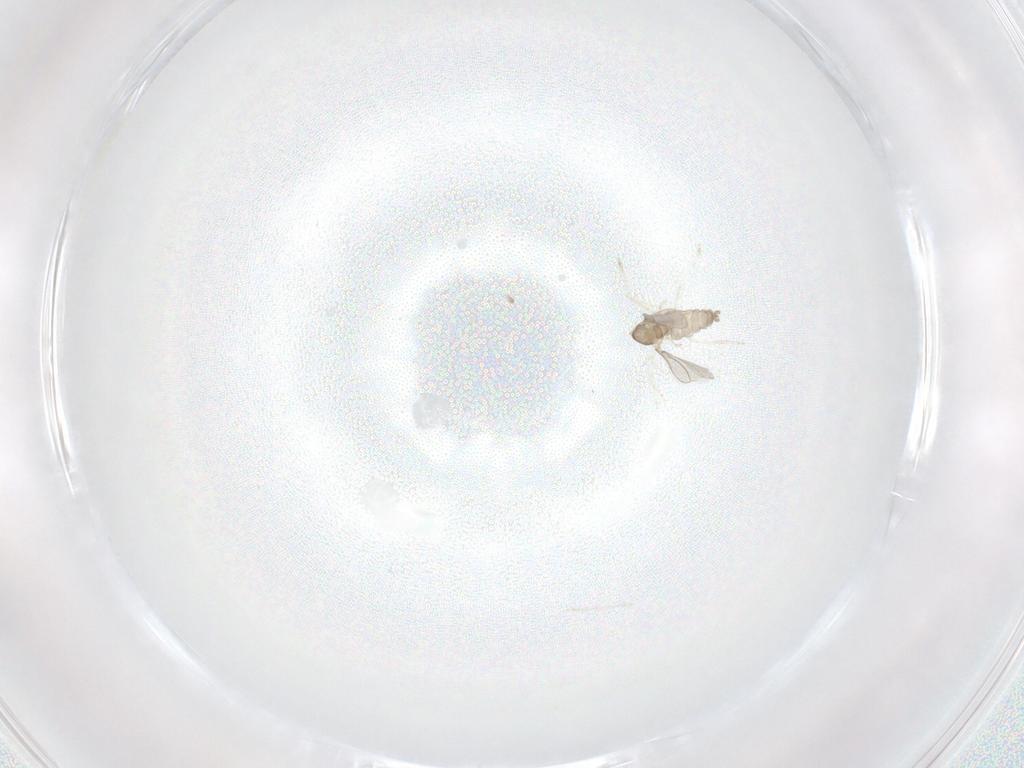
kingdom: Animalia
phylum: Arthropoda
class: Insecta
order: Diptera
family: Cecidomyiidae
